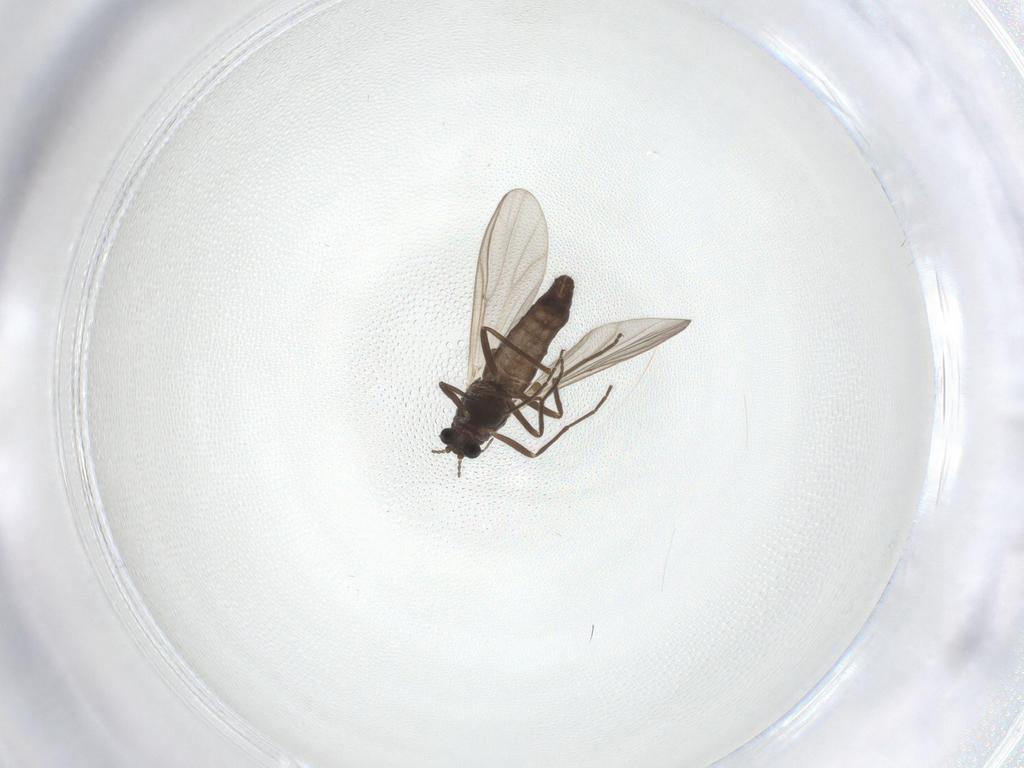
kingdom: Animalia
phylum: Arthropoda
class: Insecta
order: Diptera
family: Chironomidae
